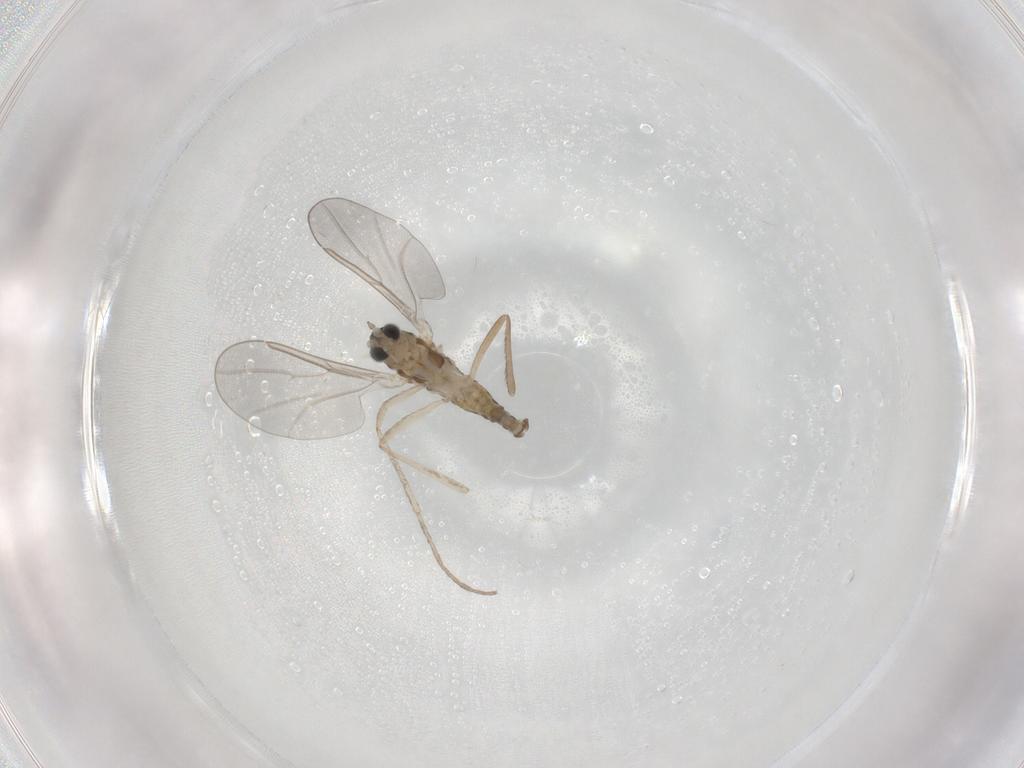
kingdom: Animalia
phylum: Arthropoda
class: Insecta
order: Diptera
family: Cecidomyiidae
